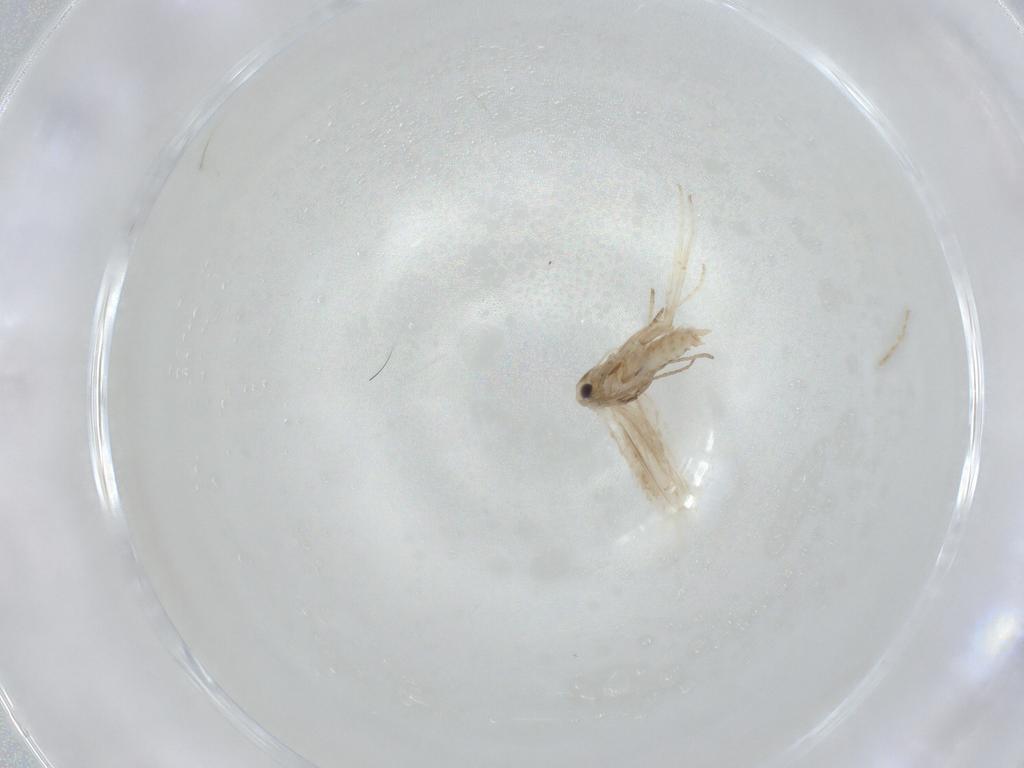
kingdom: Animalia
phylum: Arthropoda
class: Insecta
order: Lepidoptera
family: Depressariidae
